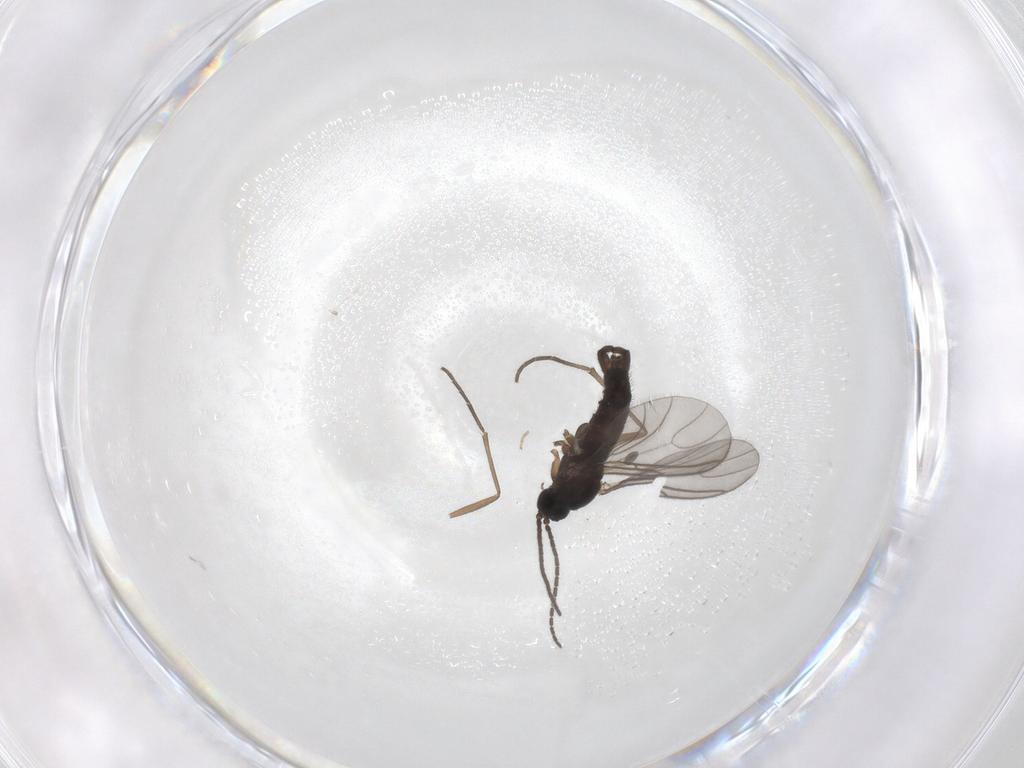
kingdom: Animalia
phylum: Arthropoda
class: Insecta
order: Diptera
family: Sciaridae
